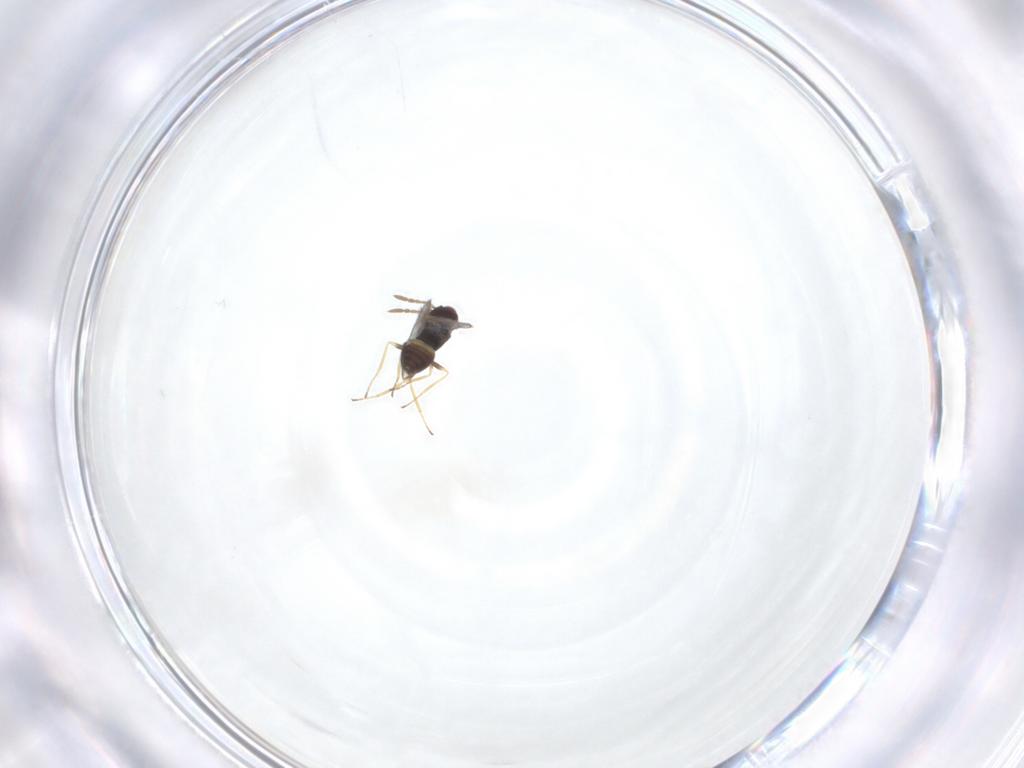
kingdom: Animalia
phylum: Arthropoda
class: Insecta
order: Hymenoptera
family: Eulophidae
